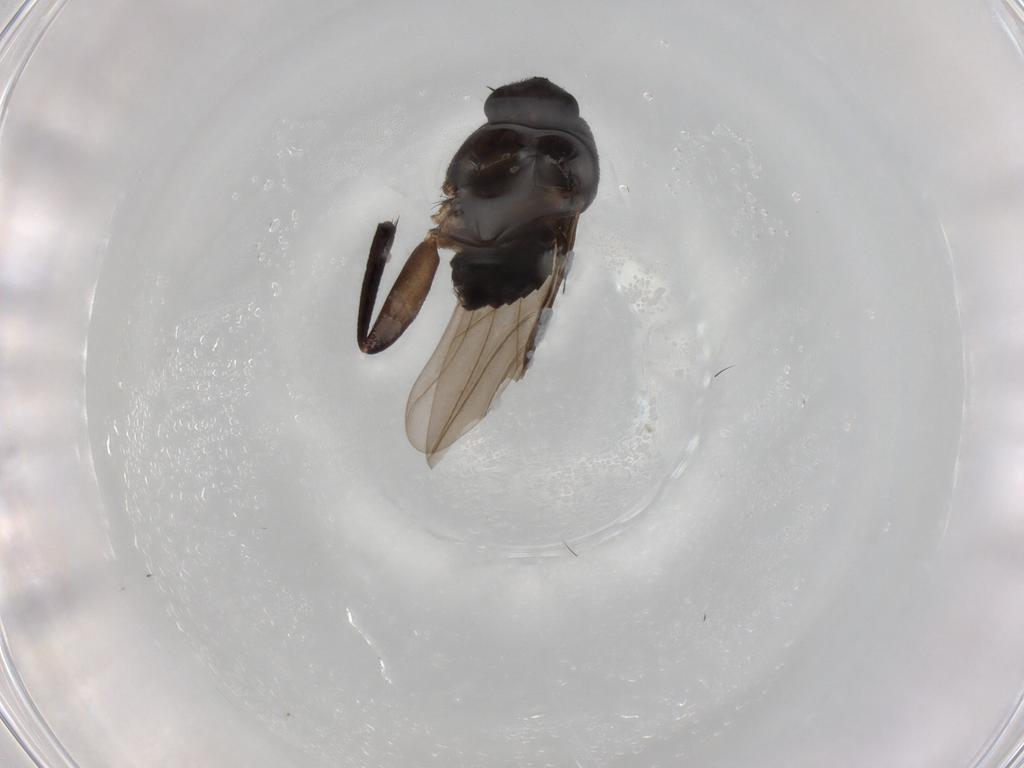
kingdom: Animalia
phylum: Arthropoda
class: Insecta
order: Diptera
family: Phoridae
